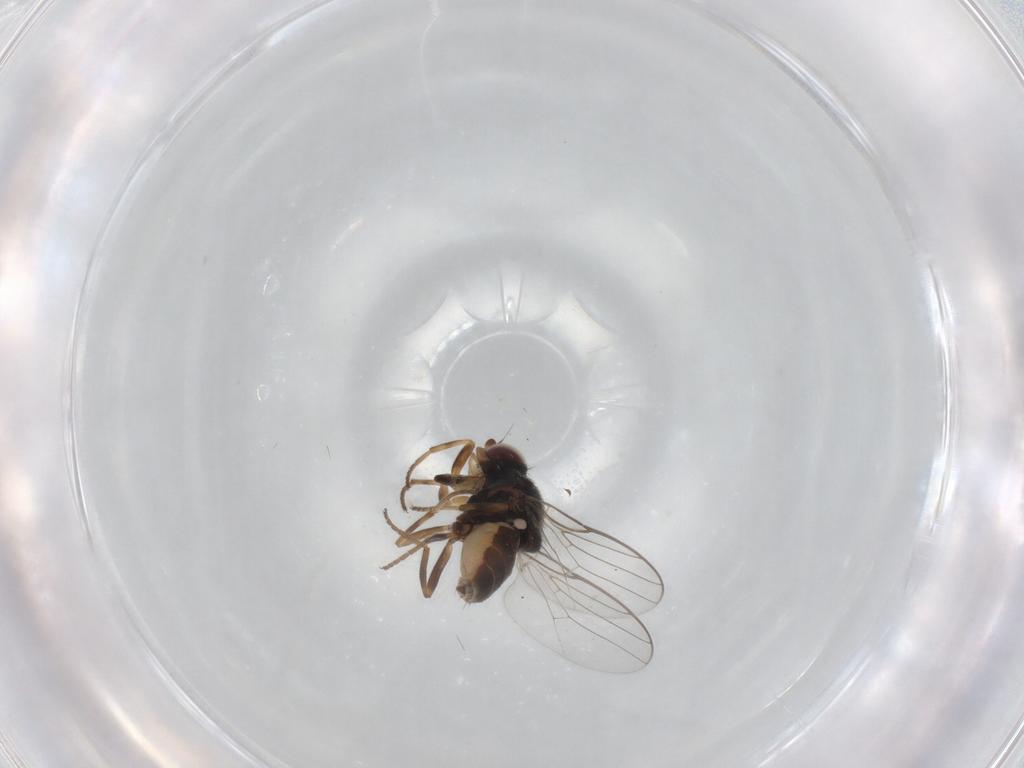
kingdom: Animalia
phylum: Arthropoda
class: Insecta
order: Diptera
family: Chloropidae
